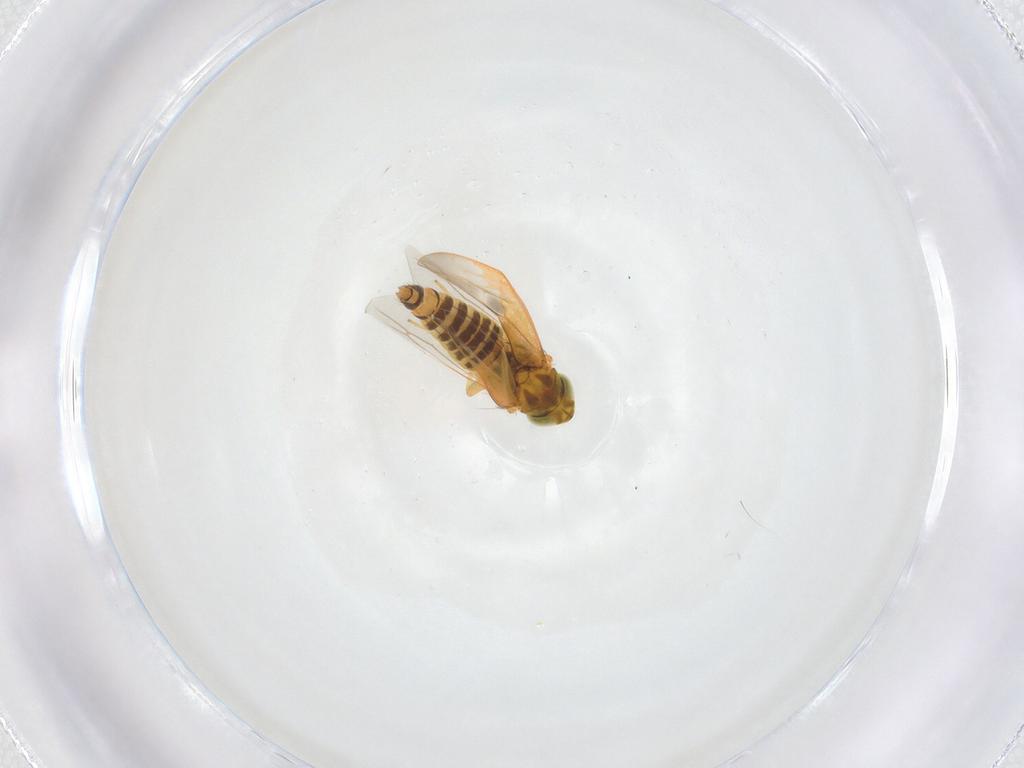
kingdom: Animalia
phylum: Arthropoda
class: Insecta
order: Hemiptera
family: Cicadellidae
